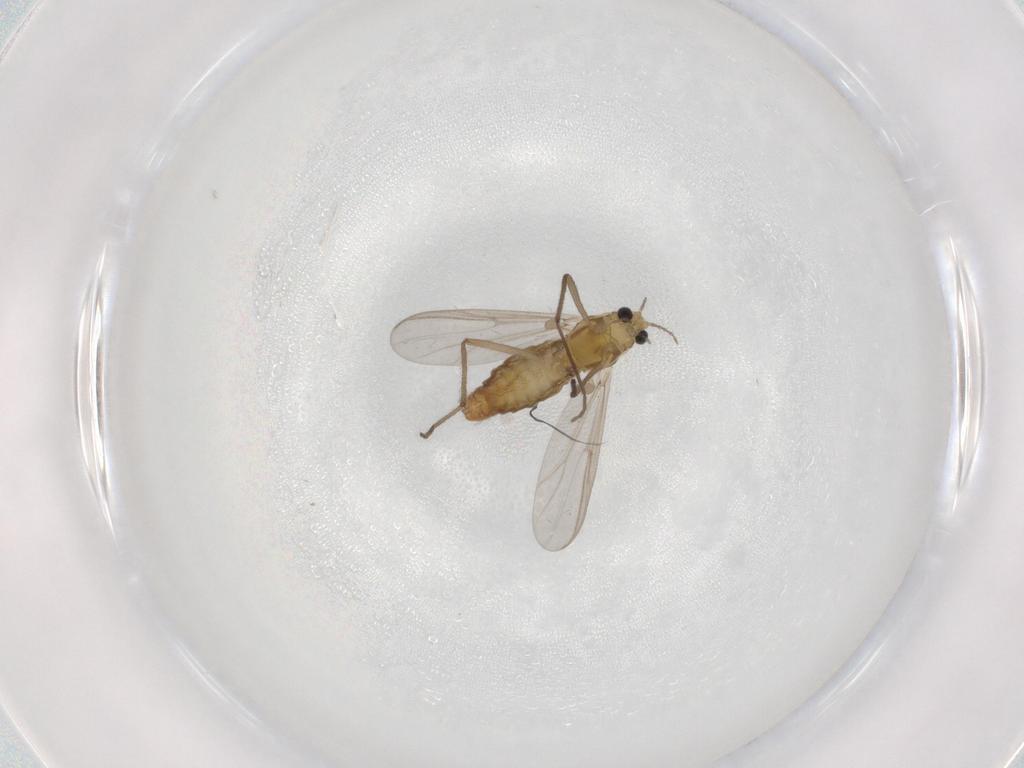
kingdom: Animalia
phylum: Arthropoda
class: Insecta
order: Diptera
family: Chironomidae
